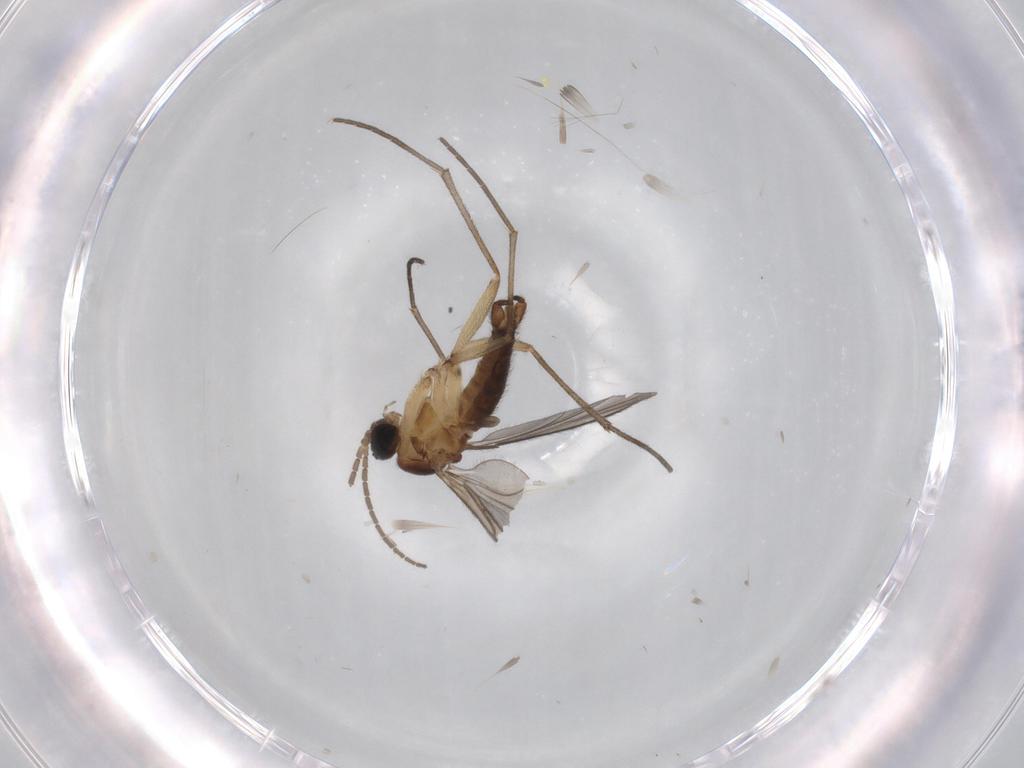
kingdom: Animalia
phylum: Arthropoda
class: Insecta
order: Diptera
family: Sciaridae
